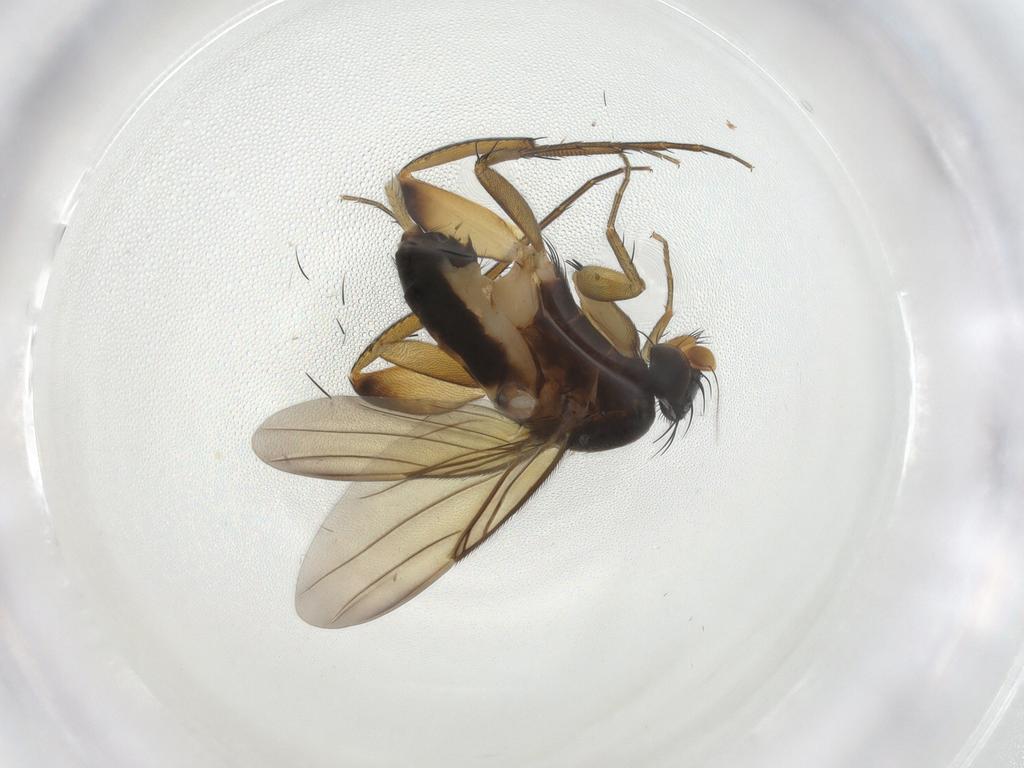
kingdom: Animalia
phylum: Arthropoda
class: Insecta
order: Diptera
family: Phoridae
